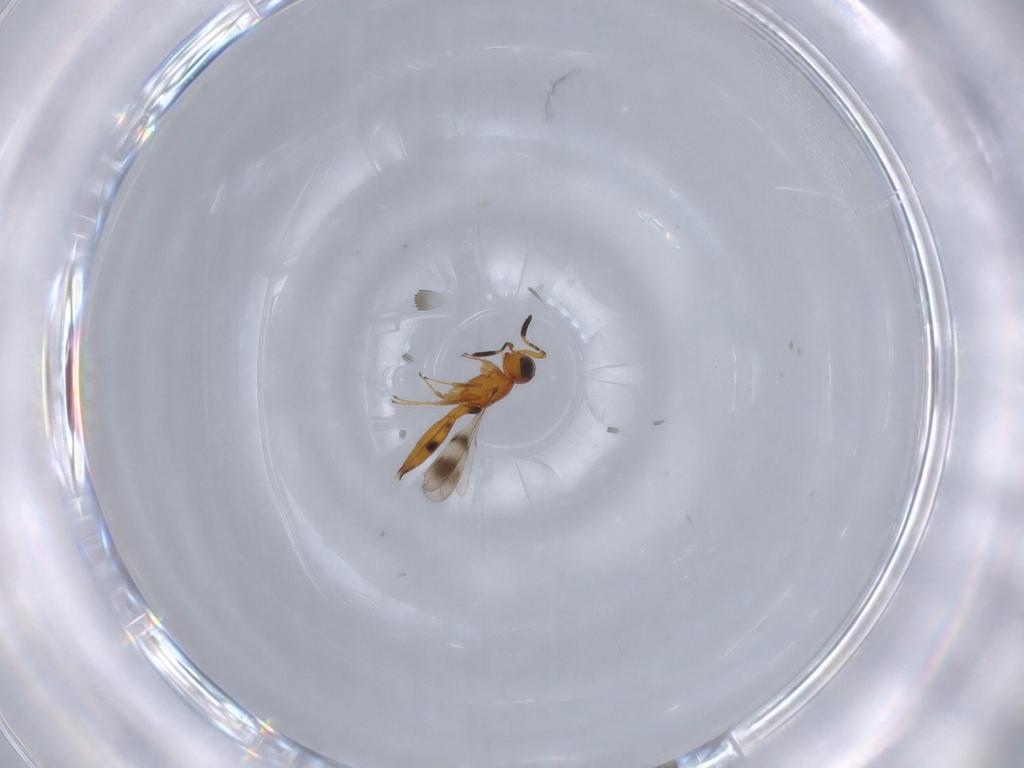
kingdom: Animalia
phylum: Arthropoda
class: Insecta
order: Hymenoptera
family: Scelionidae
